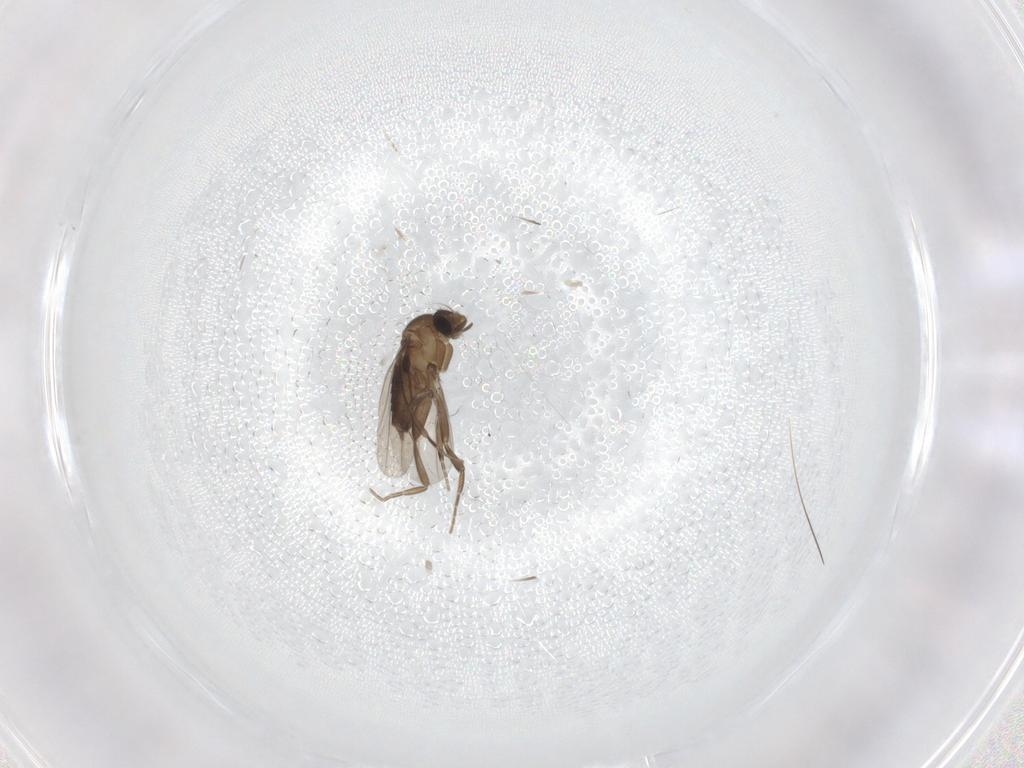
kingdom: Animalia
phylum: Arthropoda
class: Insecta
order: Diptera
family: Phoridae
